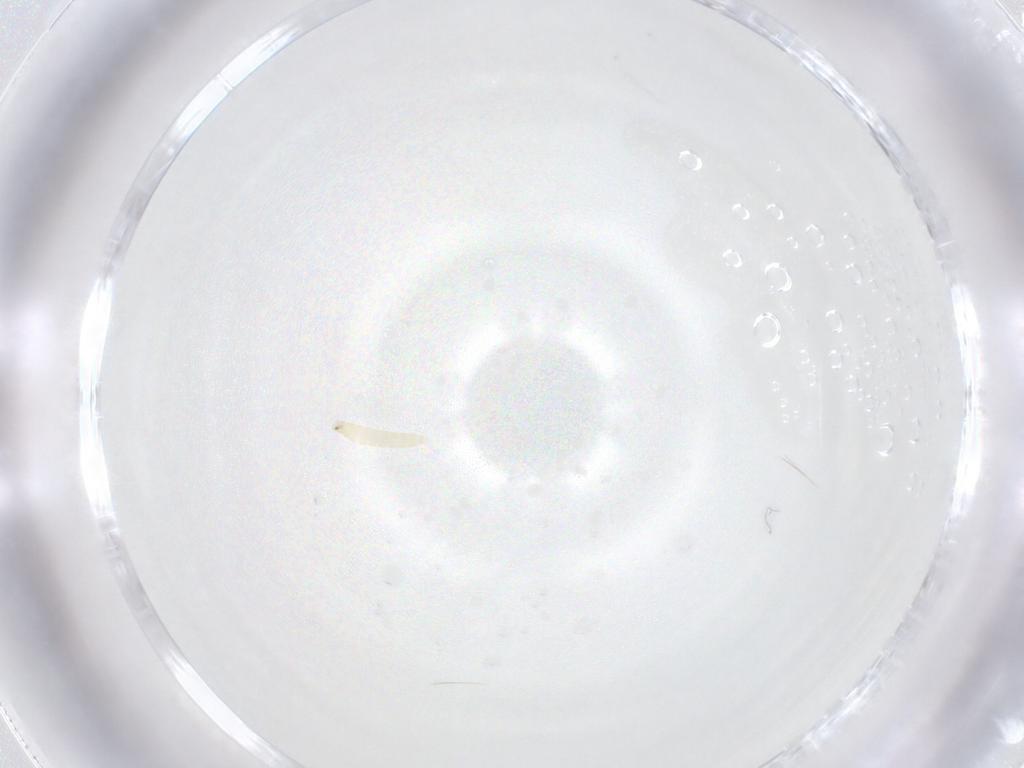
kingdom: Animalia
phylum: Arthropoda
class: Insecta
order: Diptera
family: Tachinidae
